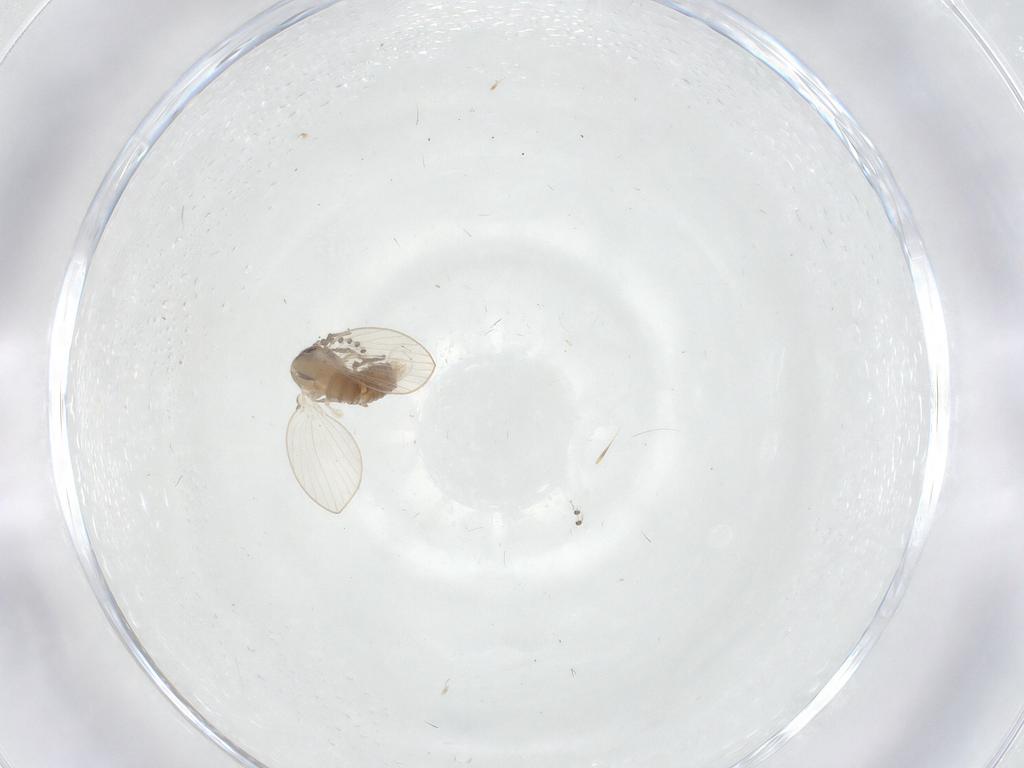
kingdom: Animalia
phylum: Arthropoda
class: Insecta
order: Diptera
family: Psychodidae
